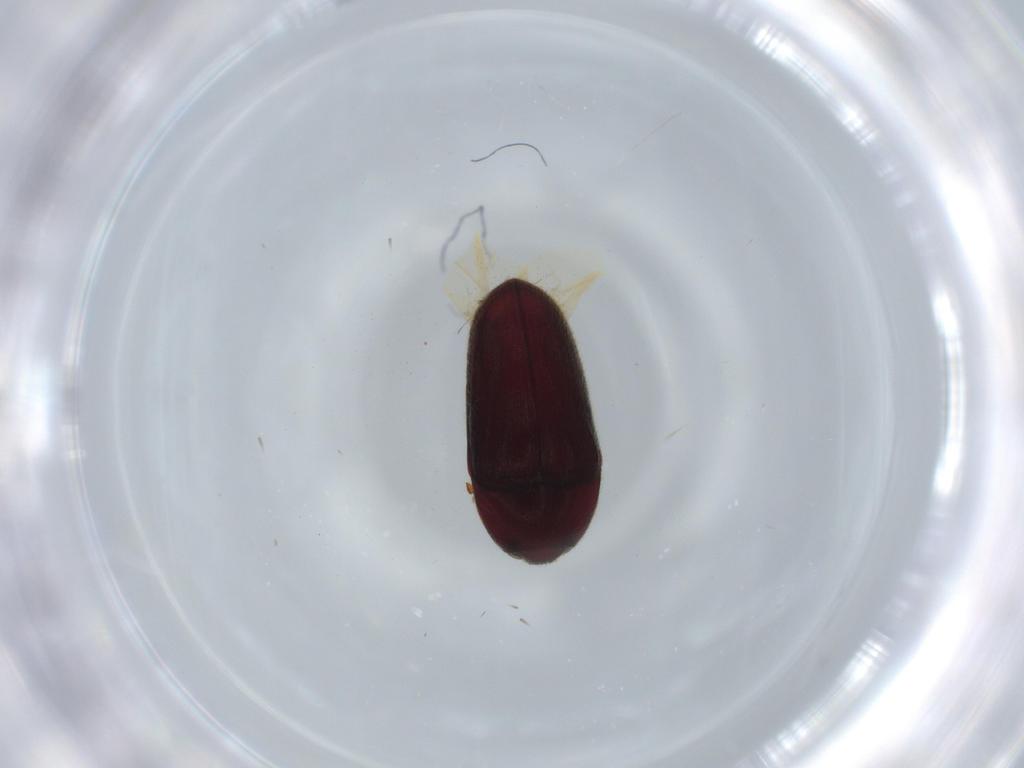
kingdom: Animalia
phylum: Arthropoda
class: Insecta
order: Coleoptera
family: Throscidae
